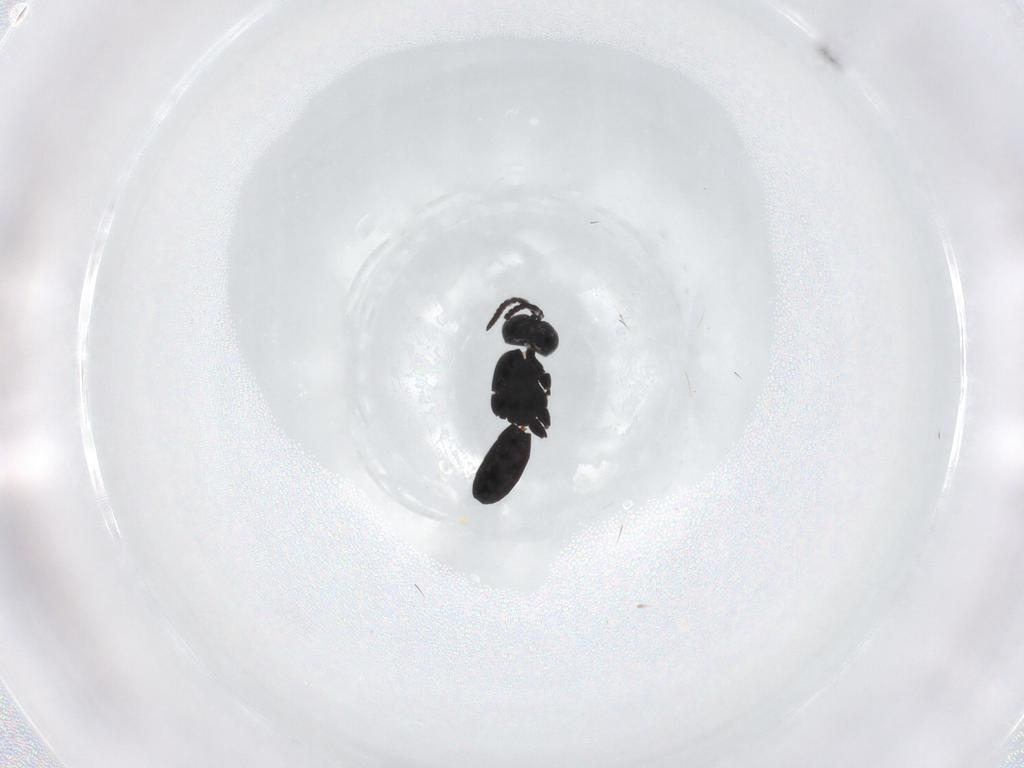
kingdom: Animalia
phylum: Arthropoda
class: Insecta
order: Hymenoptera
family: Scelionidae
